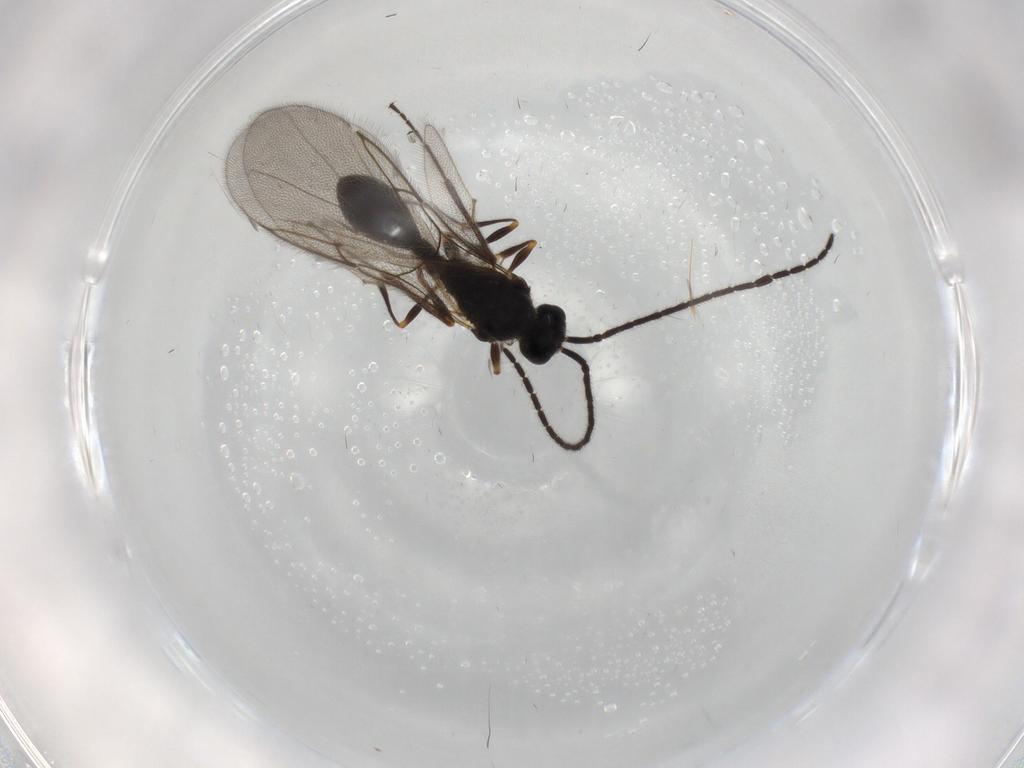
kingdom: Animalia
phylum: Arthropoda
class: Insecta
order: Hymenoptera
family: Diapriidae
